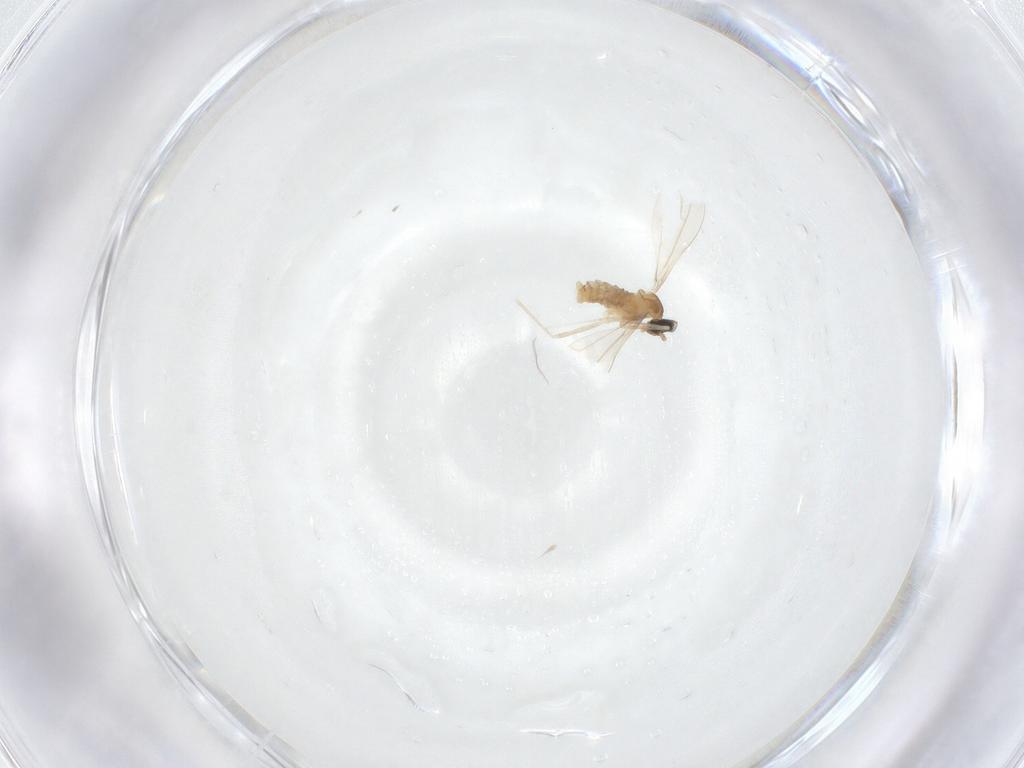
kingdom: Animalia
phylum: Arthropoda
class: Insecta
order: Diptera
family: Cecidomyiidae
